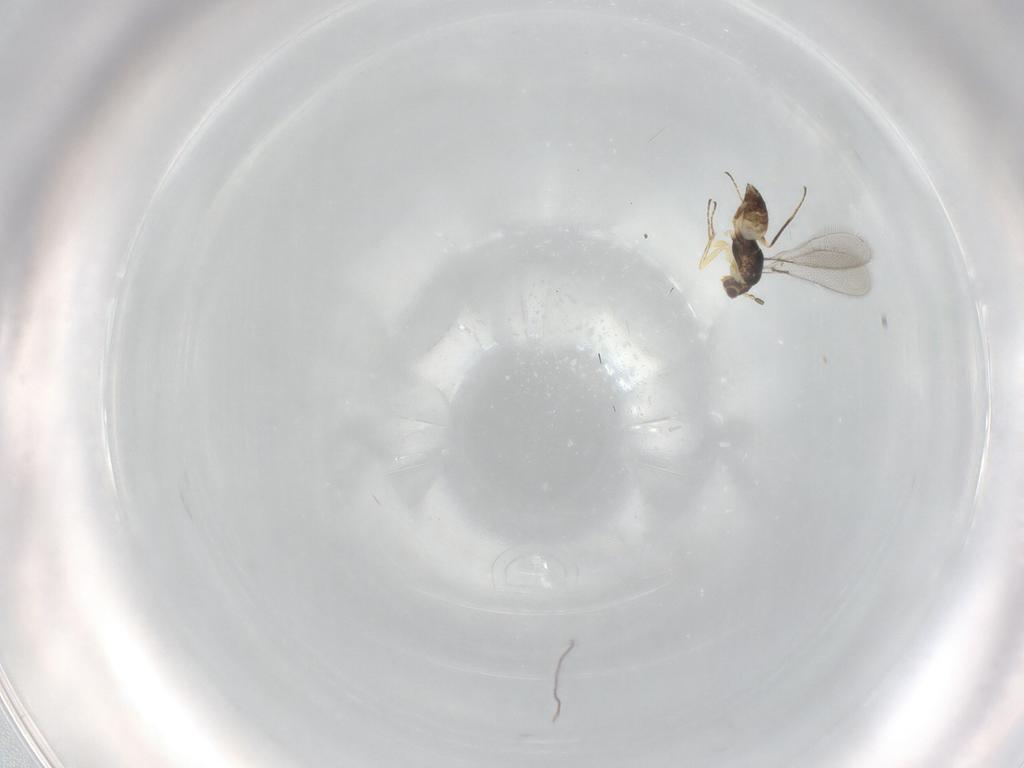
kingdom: Animalia
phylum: Arthropoda
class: Insecta
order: Hymenoptera
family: Mymaridae
